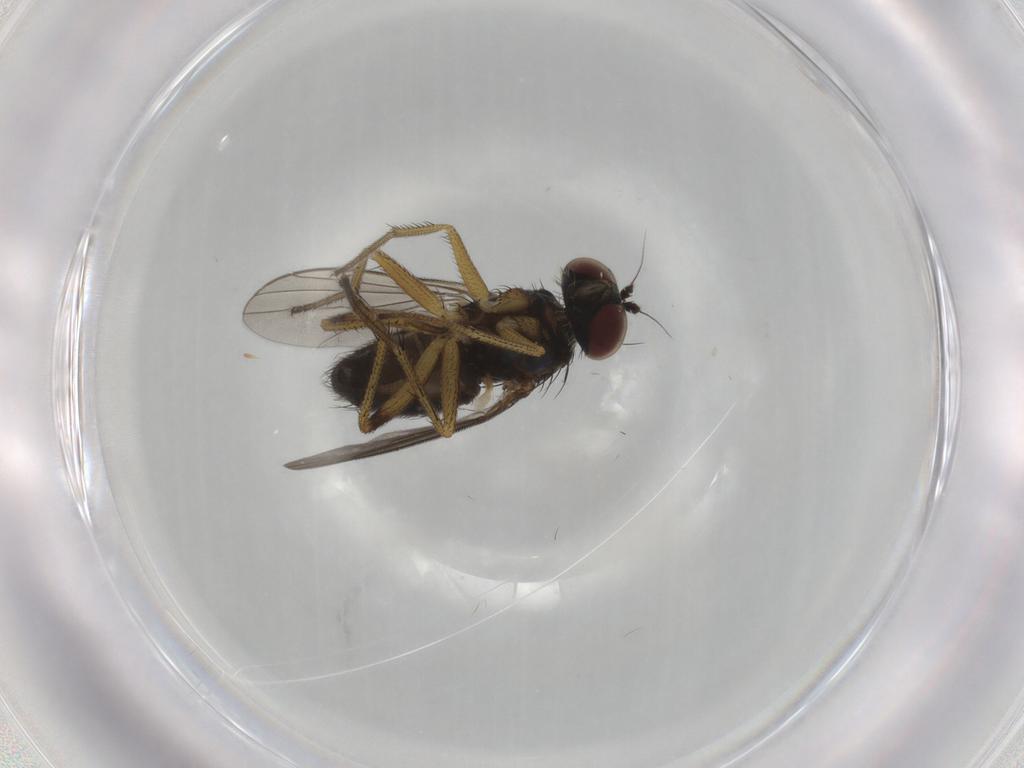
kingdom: Animalia
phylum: Arthropoda
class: Insecta
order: Diptera
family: Dolichopodidae
